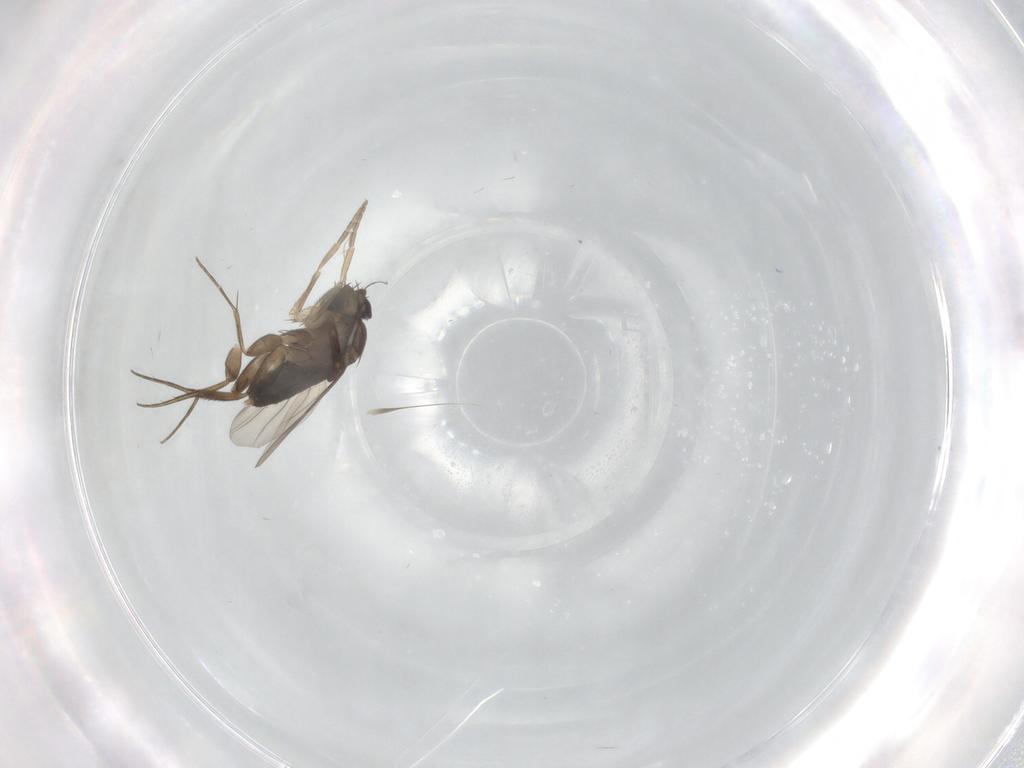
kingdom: Animalia
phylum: Arthropoda
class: Insecta
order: Diptera
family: Phoridae
